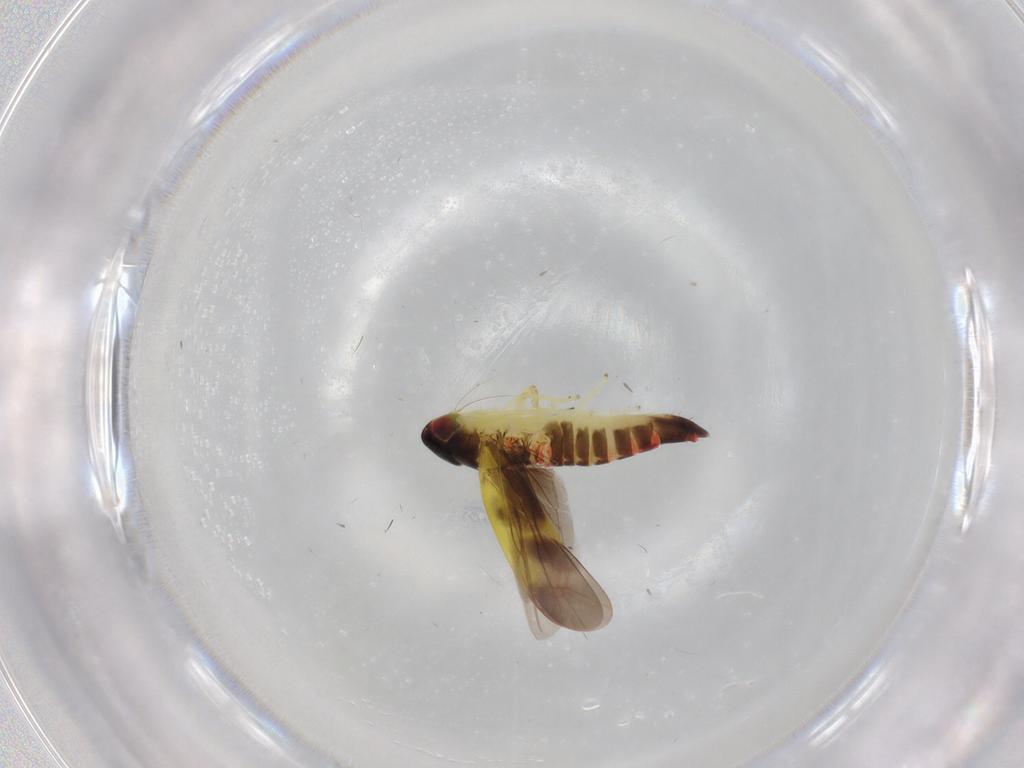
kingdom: Animalia
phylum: Arthropoda
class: Insecta
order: Hemiptera
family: Cicadellidae
